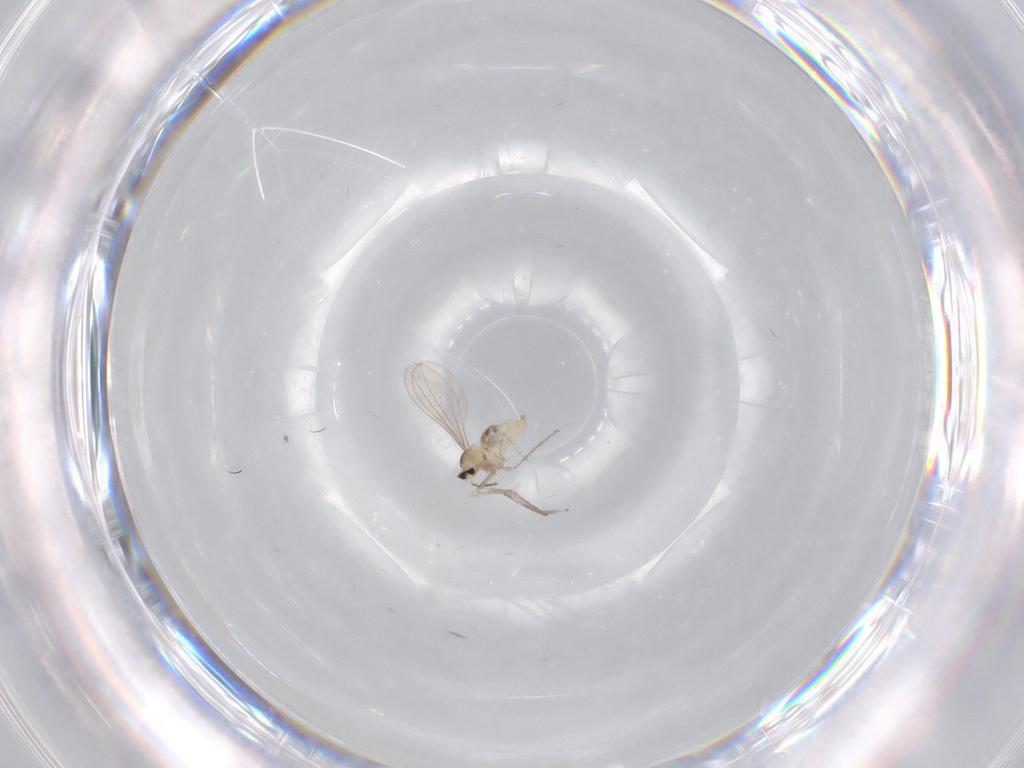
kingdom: Animalia
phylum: Arthropoda
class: Insecta
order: Diptera
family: Cecidomyiidae
